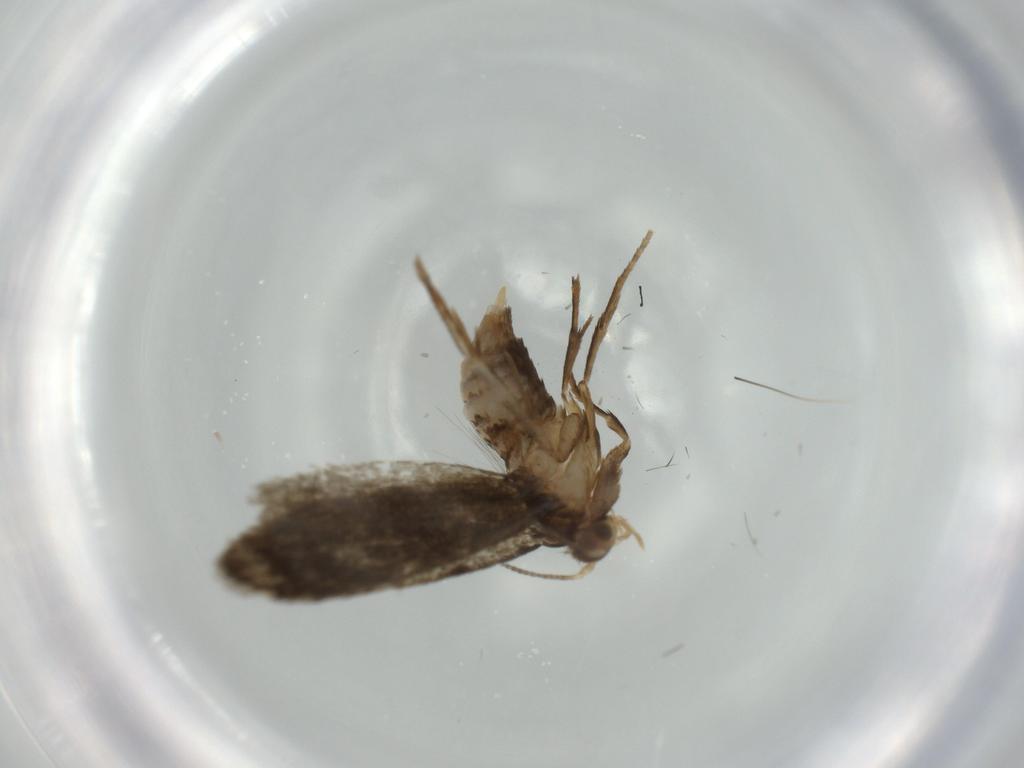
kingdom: Animalia
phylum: Arthropoda
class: Insecta
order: Lepidoptera
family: Tineidae
